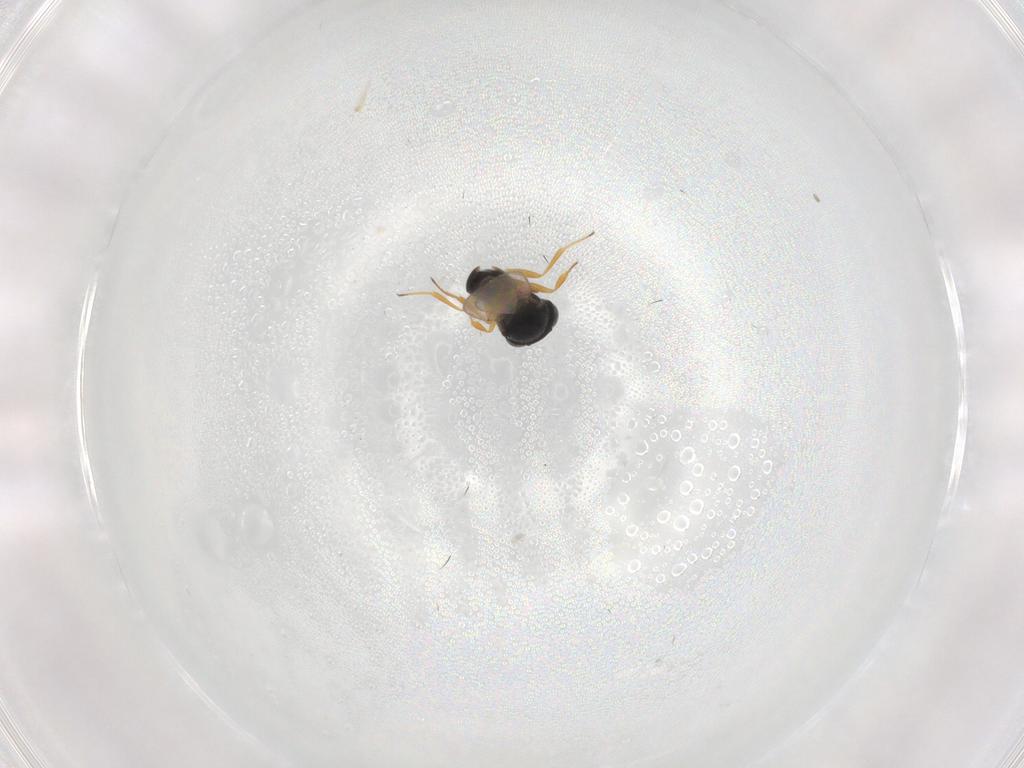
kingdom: Animalia
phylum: Arthropoda
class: Insecta
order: Hymenoptera
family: Scelionidae
